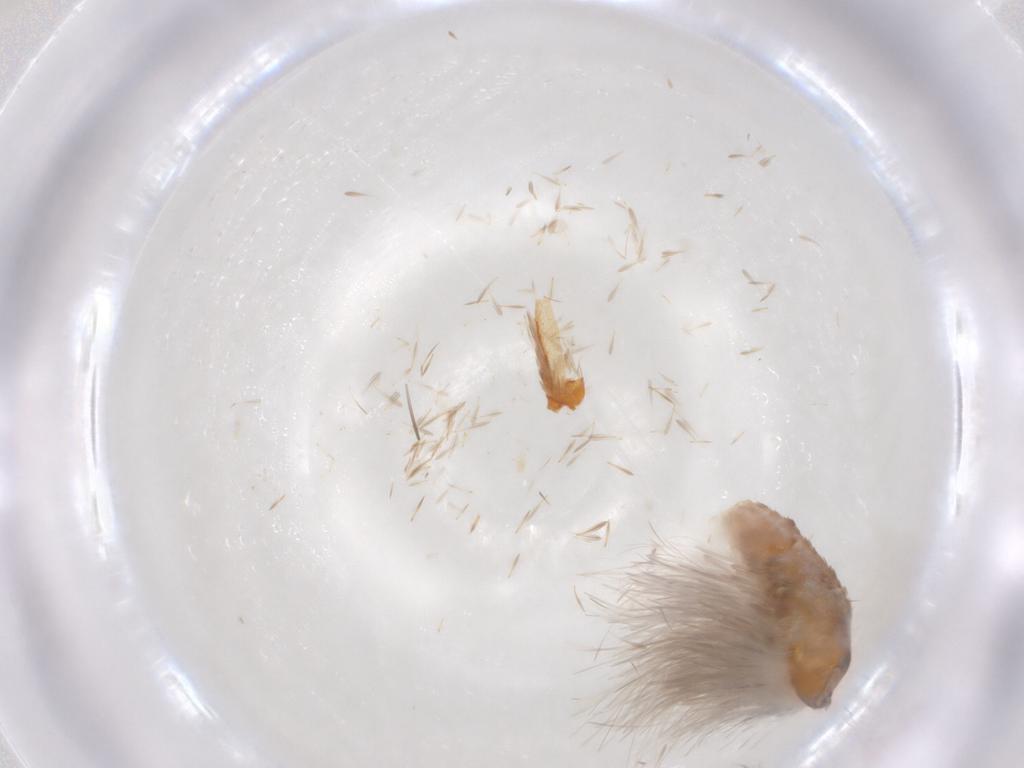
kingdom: Animalia
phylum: Arthropoda
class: Insecta
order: Lepidoptera
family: Xyloryctidae
